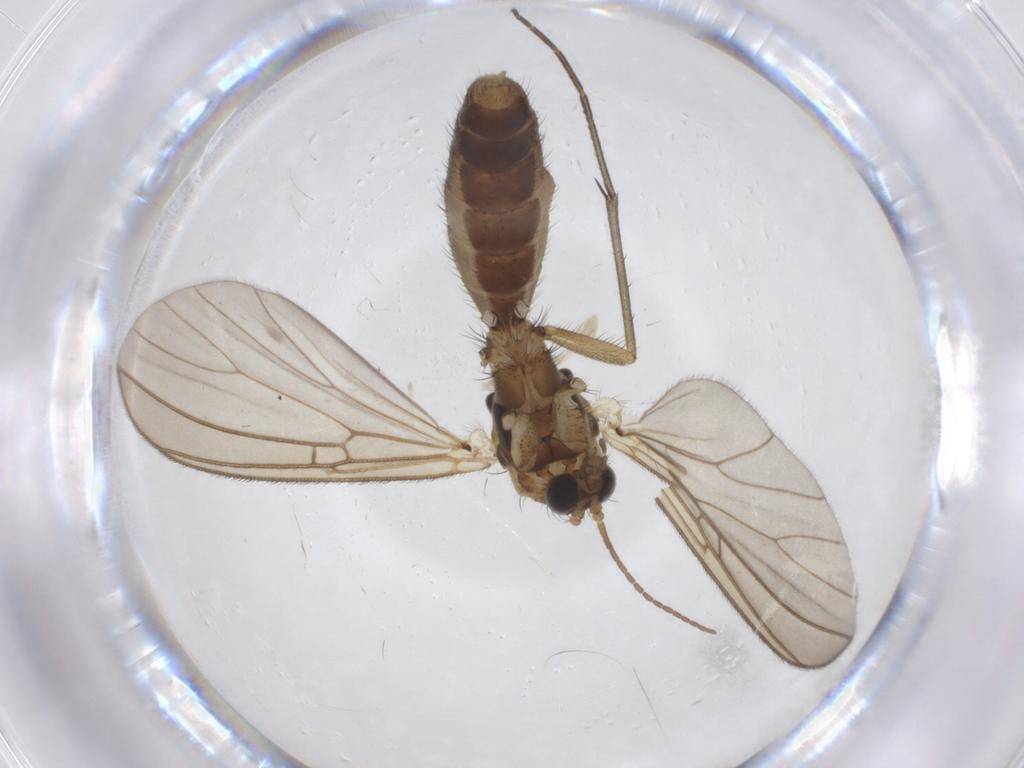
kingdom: Animalia
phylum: Arthropoda
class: Insecta
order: Diptera
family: Mycetophilidae
